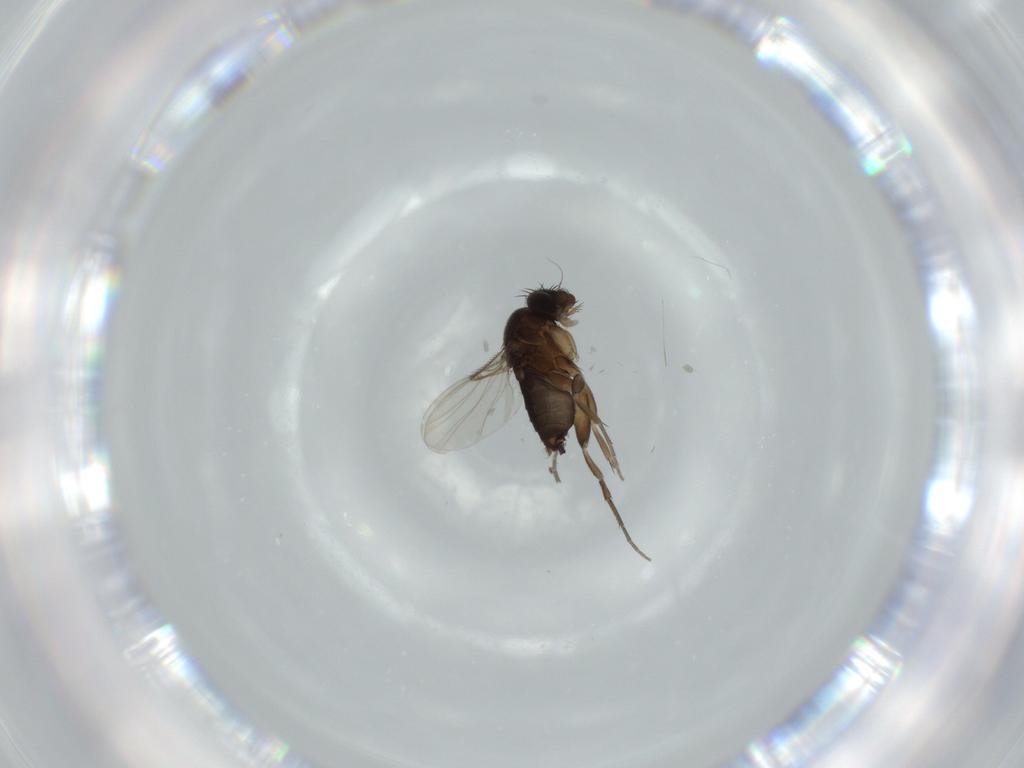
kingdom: Animalia
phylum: Arthropoda
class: Insecta
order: Diptera
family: Phoridae
